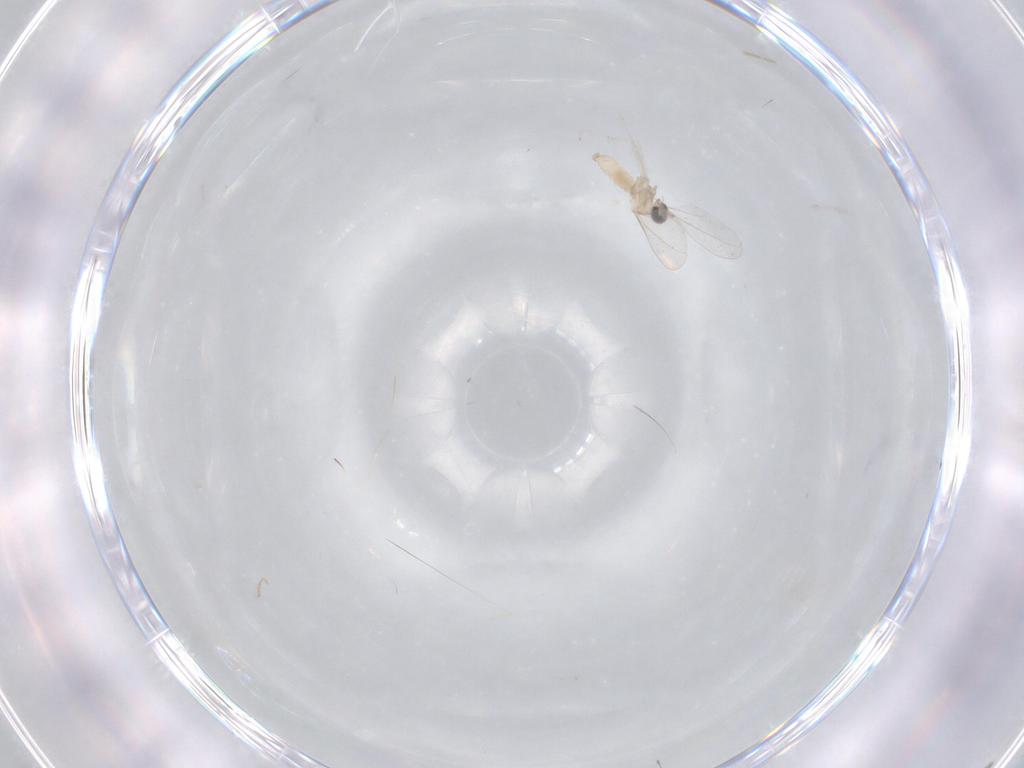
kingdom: Animalia
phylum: Arthropoda
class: Insecta
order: Diptera
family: Cecidomyiidae
